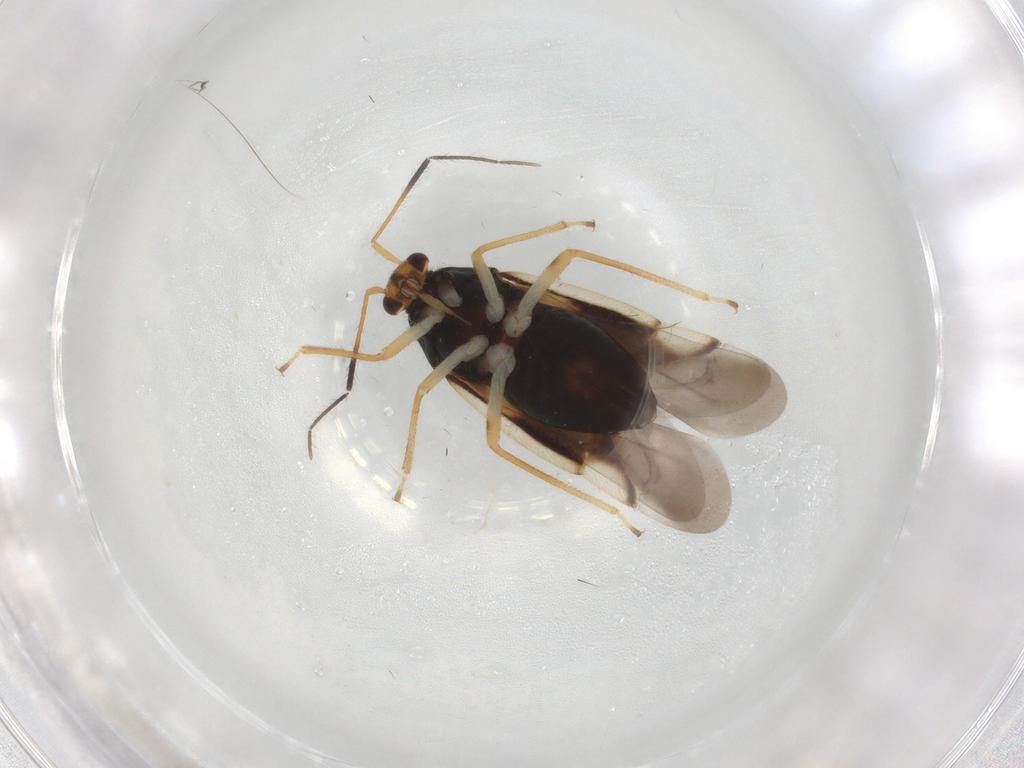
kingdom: Animalia
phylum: Arthropoda
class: Insecta
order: Hemiptera
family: Miridae
